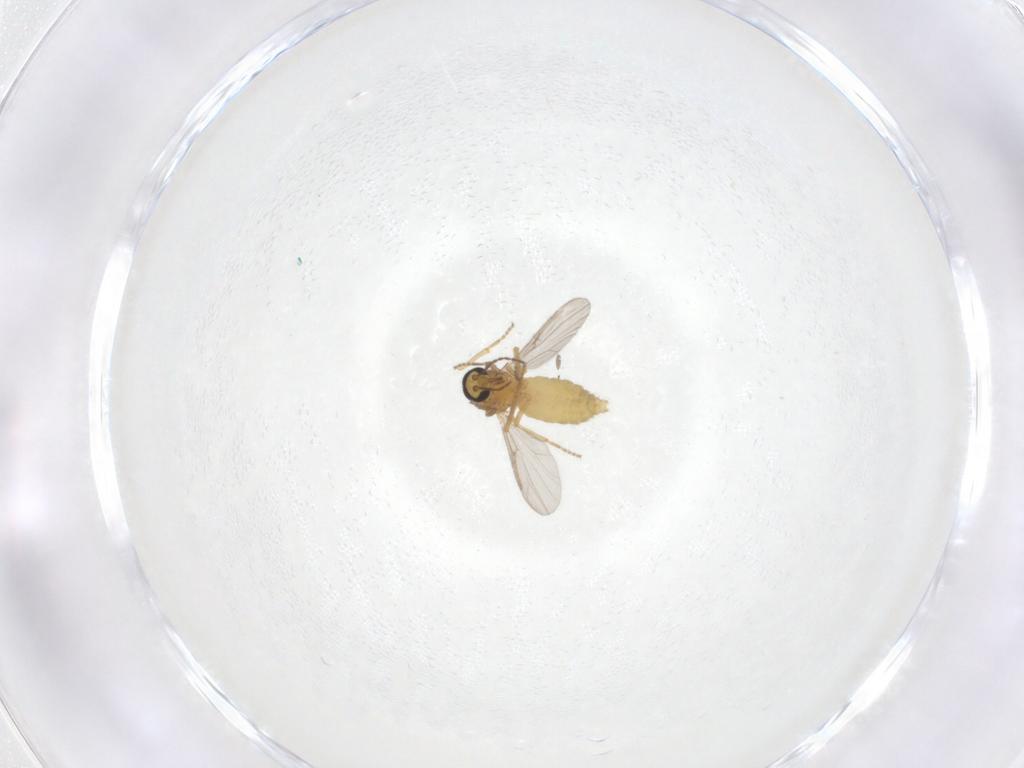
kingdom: Animalia
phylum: Arthropoda
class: Insecta
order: Diptera
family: Ceratopogonidae
